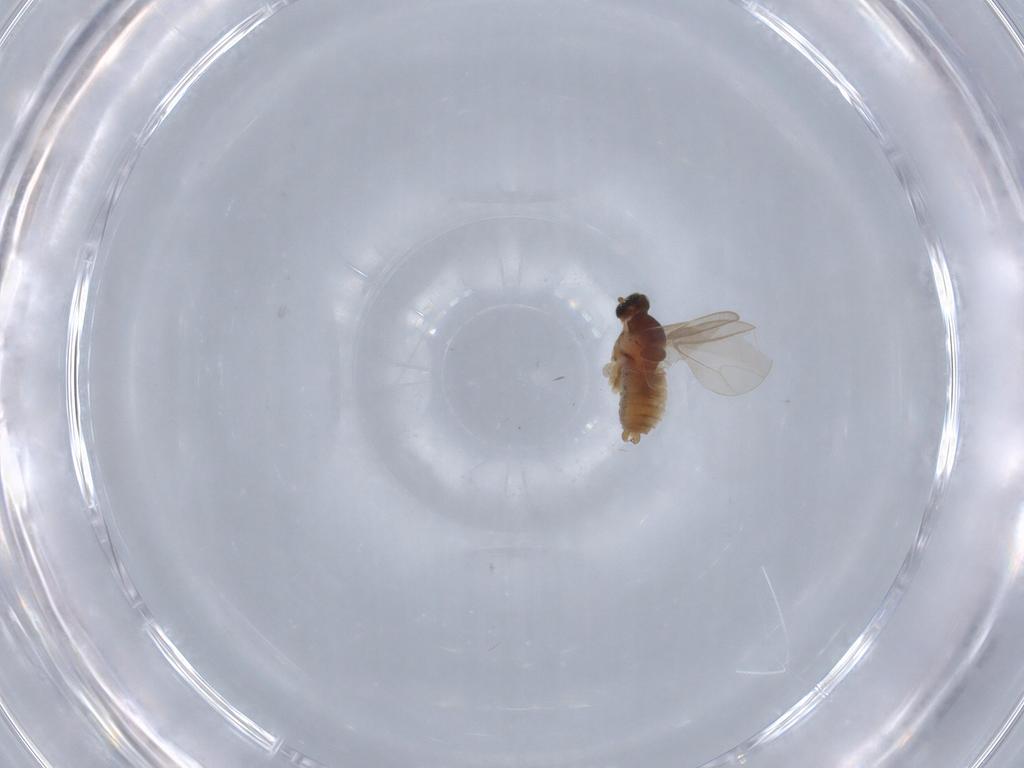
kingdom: Animalia
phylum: Arthropoda
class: Insecta
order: Diptera
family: Cecidomyiidae
